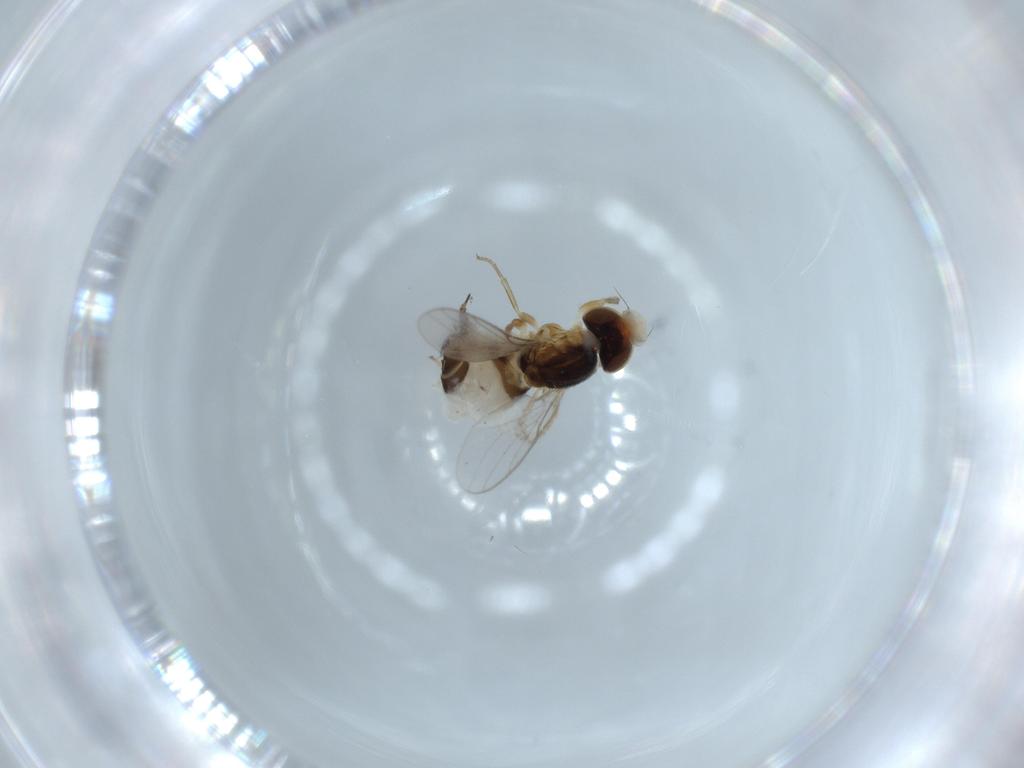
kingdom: Animalia
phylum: Arthropoda
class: Insecta
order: Diptera
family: Chloropidae
